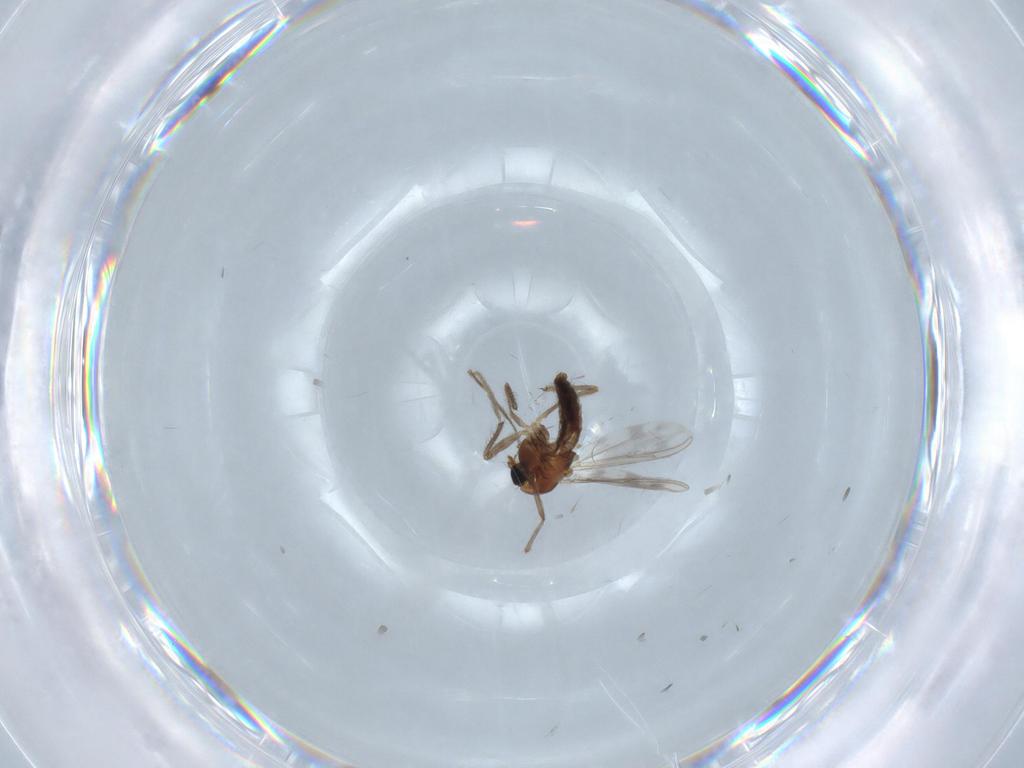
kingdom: Animalia
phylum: Arthropoda
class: Insecta
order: Diptera
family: Chironomidae
